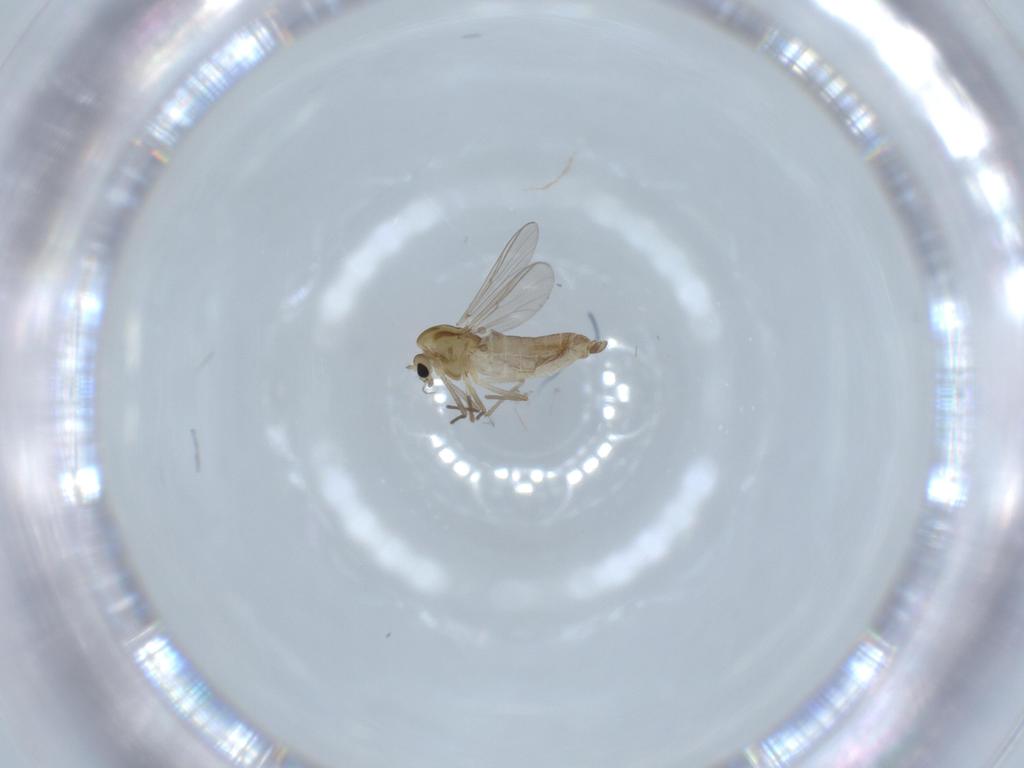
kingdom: Animalia
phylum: Arthropoda
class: Insecta
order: Diptera
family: Chironomidae
